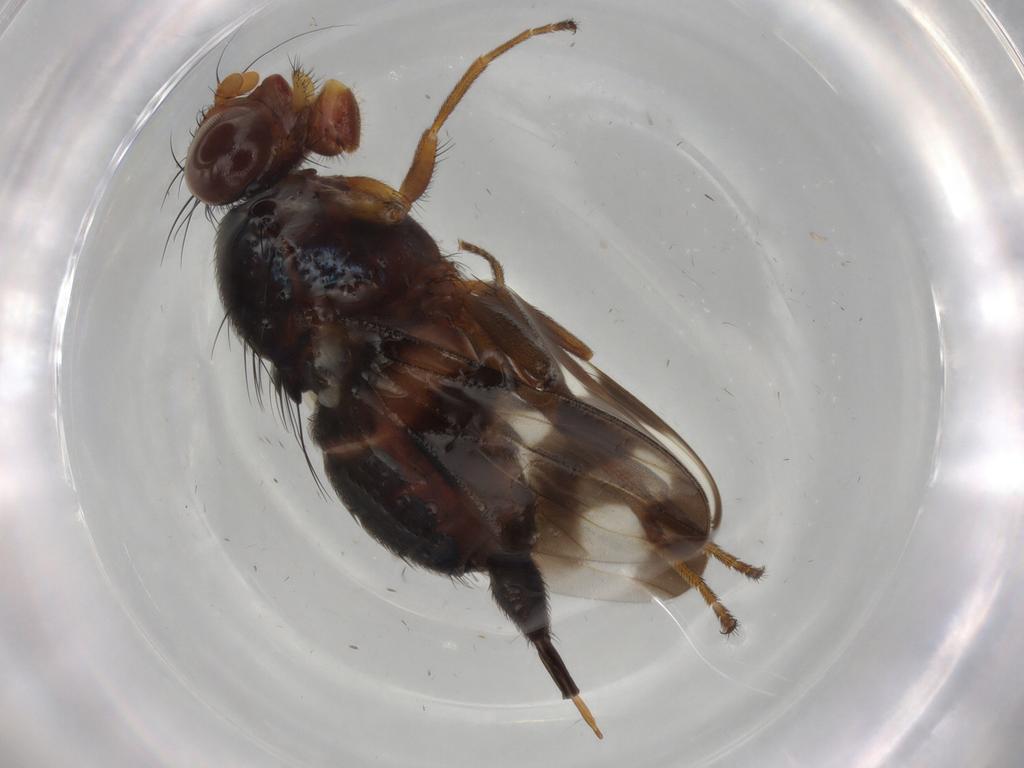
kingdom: Animalia
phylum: Arthropoda
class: Insecta
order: Diptera
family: Ulidiidae
